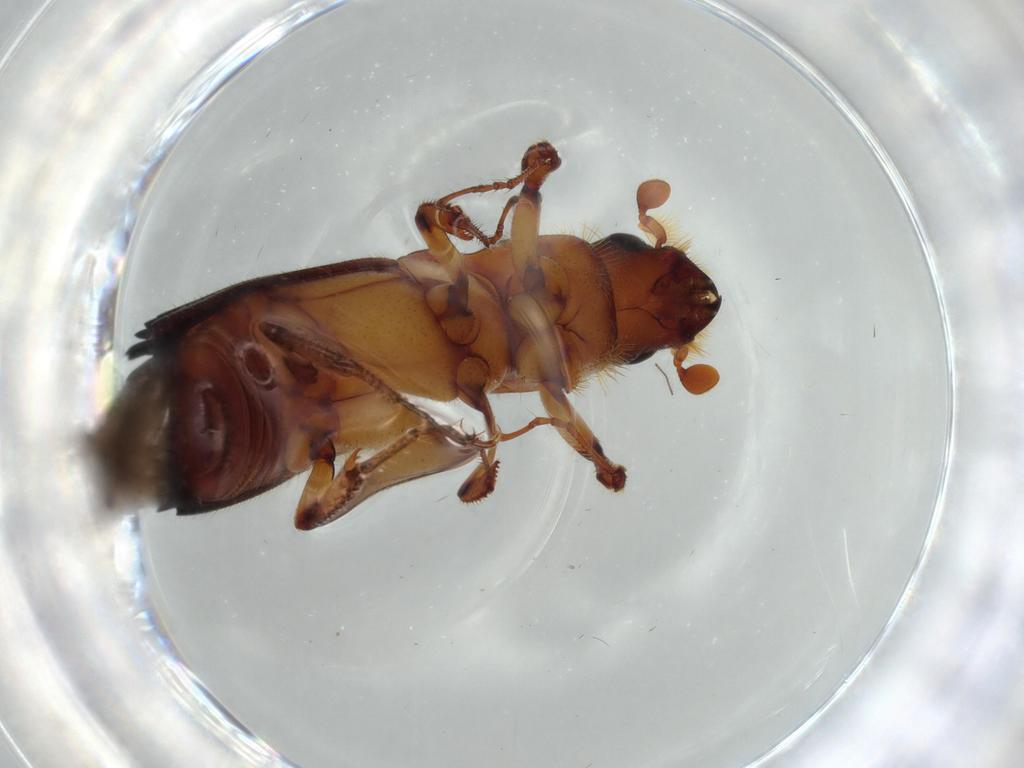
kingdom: Animalia
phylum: Arthropoda
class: Insecta
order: Coleoptera
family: Curculionidae
